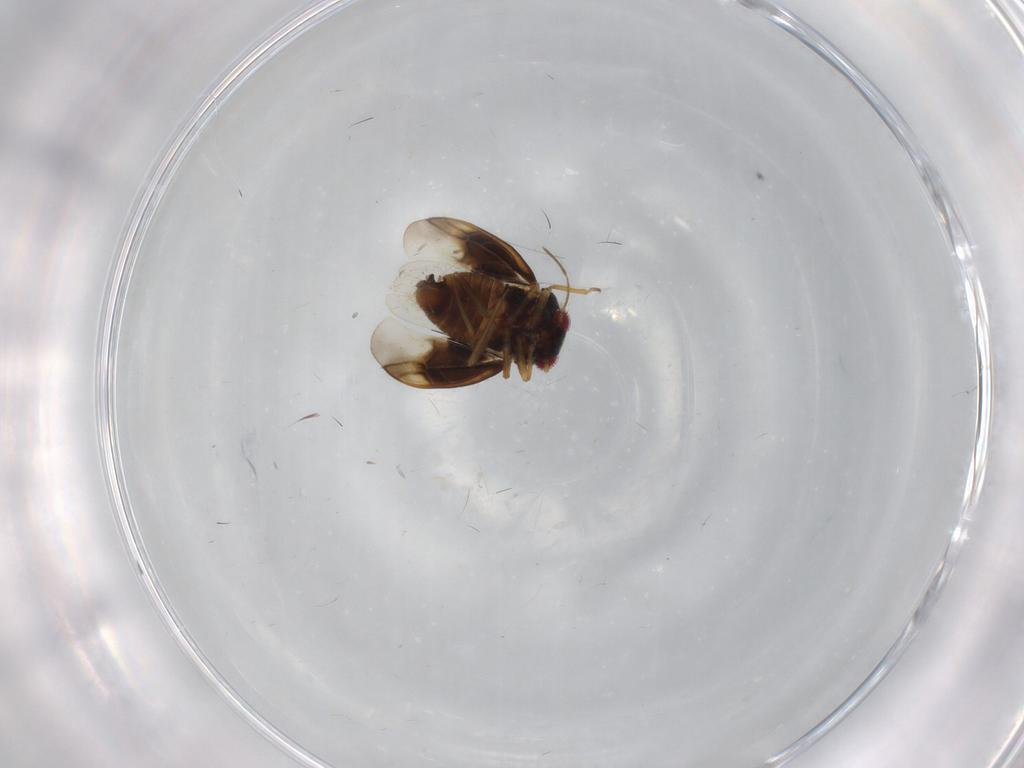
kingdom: Animalia
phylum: Arthropoda
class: Insecta
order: Hemiptera
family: Schizopteridae
